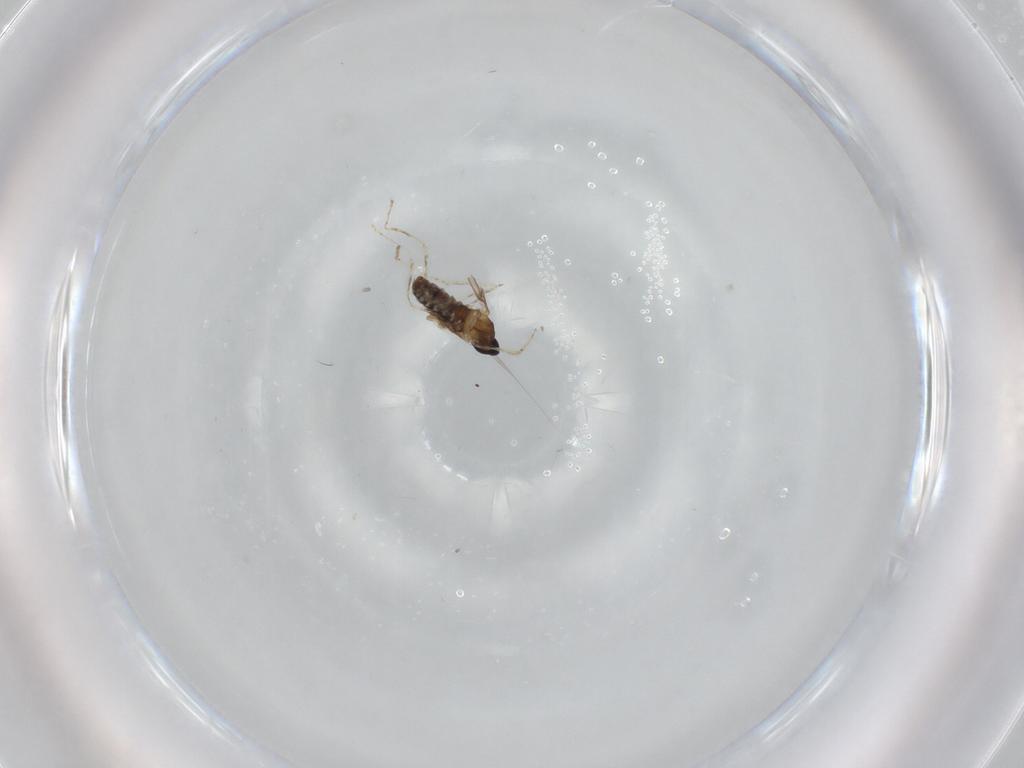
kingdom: Animalia
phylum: Arthropoda
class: Insecta
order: Diptera
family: Cecidomyiidae
